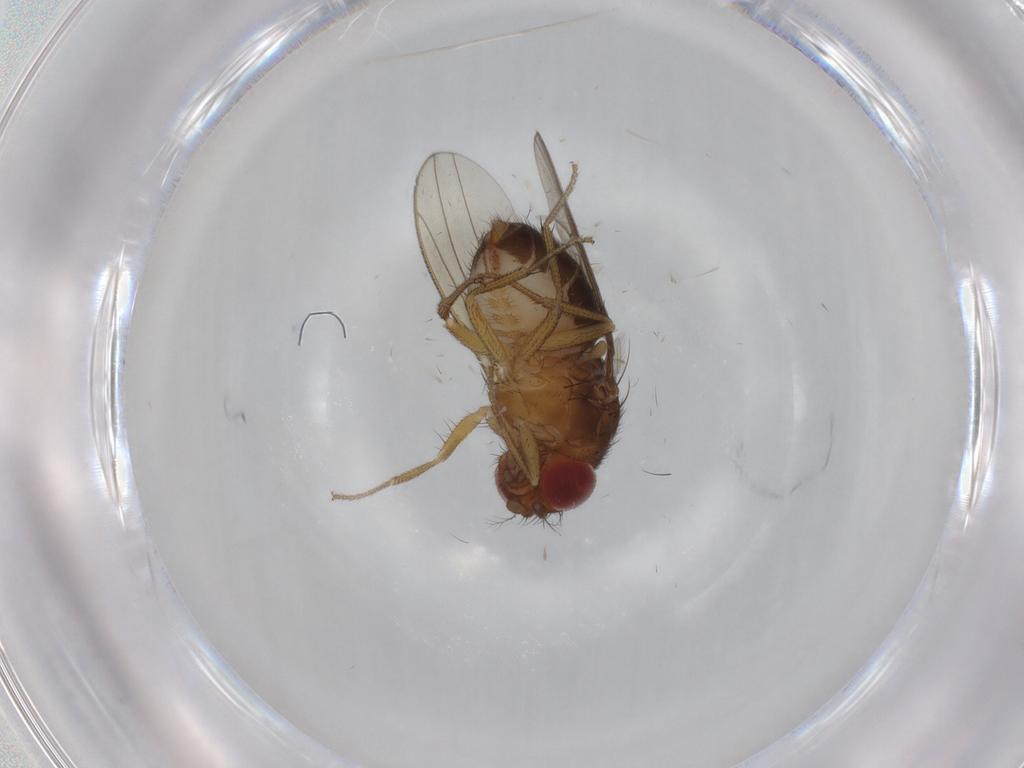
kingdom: Animalia
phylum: Arthropoda
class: Insecta
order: Diptera
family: Drosophilidae
